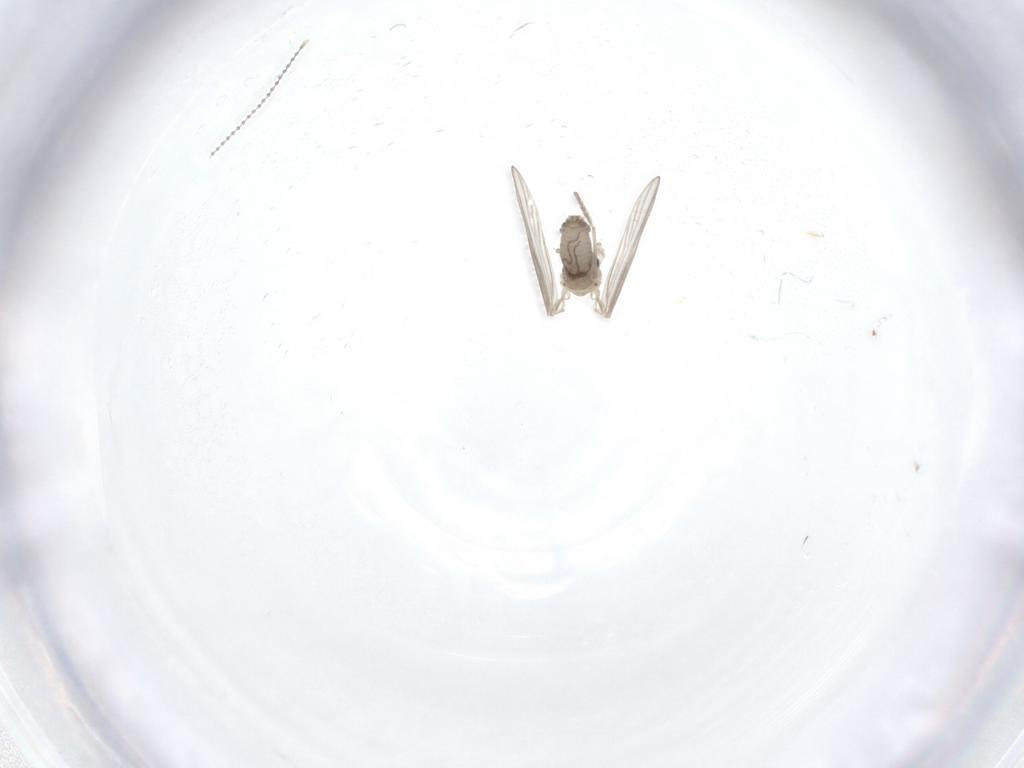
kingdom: Animalia
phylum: Arthropoda
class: Insecta
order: Diptera
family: Psychodidae
